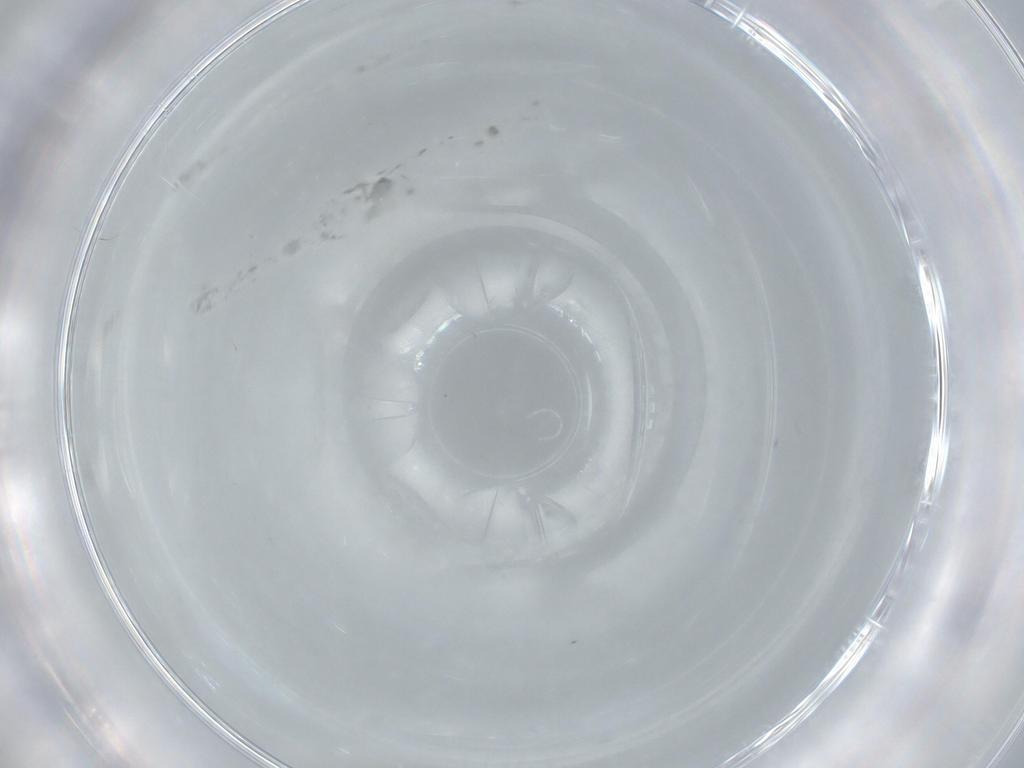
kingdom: Animalia
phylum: Arthropoda
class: Insecta
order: Diptera
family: Cecidomyiidae
